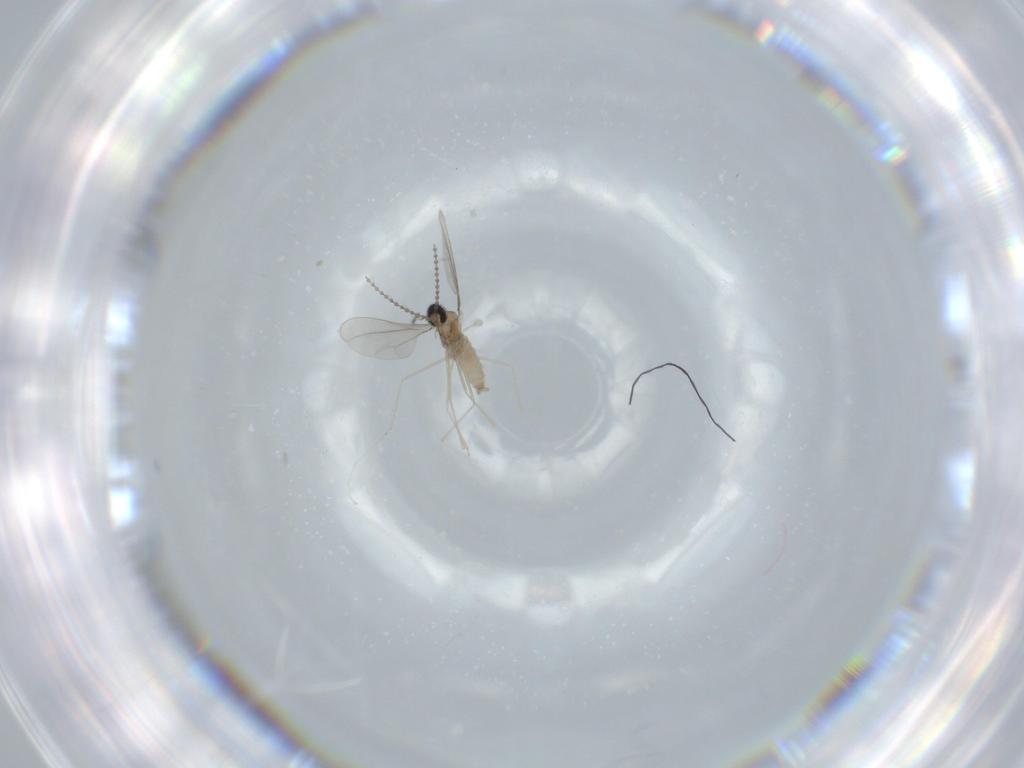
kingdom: Animalia
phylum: Arthropoda
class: Insecta
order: Diptera
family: Cecidomyiidae
